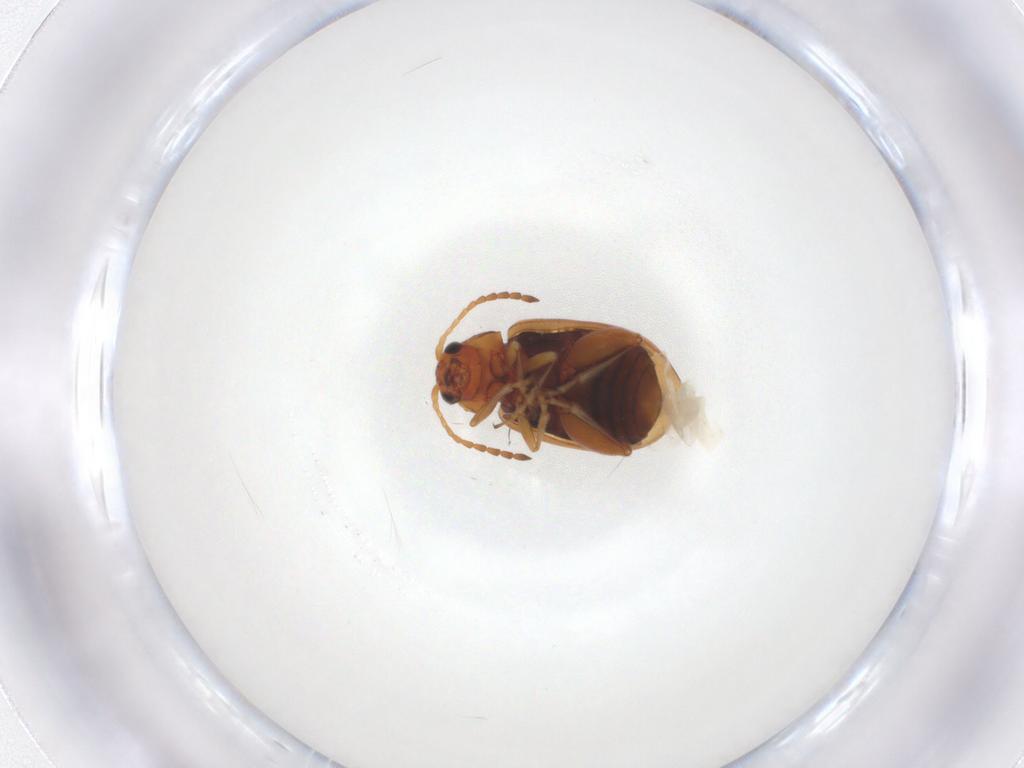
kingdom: Animalia
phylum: Arthropoda
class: Insecta
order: Coleoptera
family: Chrysomelidae
